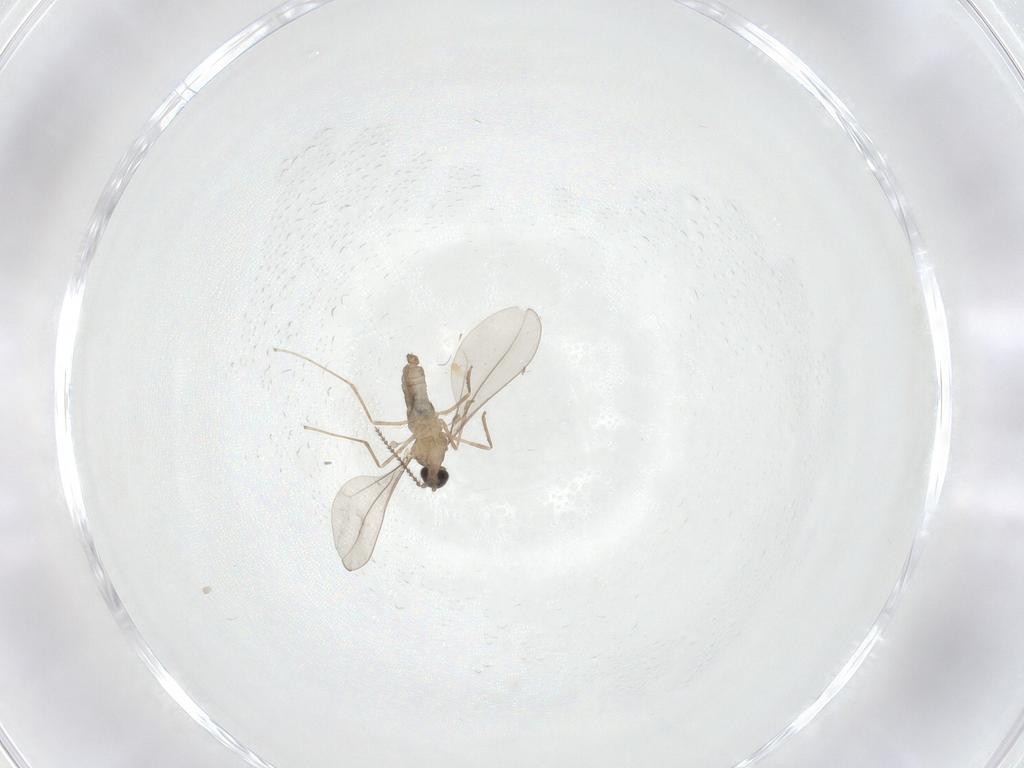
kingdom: Animalia
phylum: Arthropoda
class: Insecta
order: Diptera
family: Cecidomyiidae
